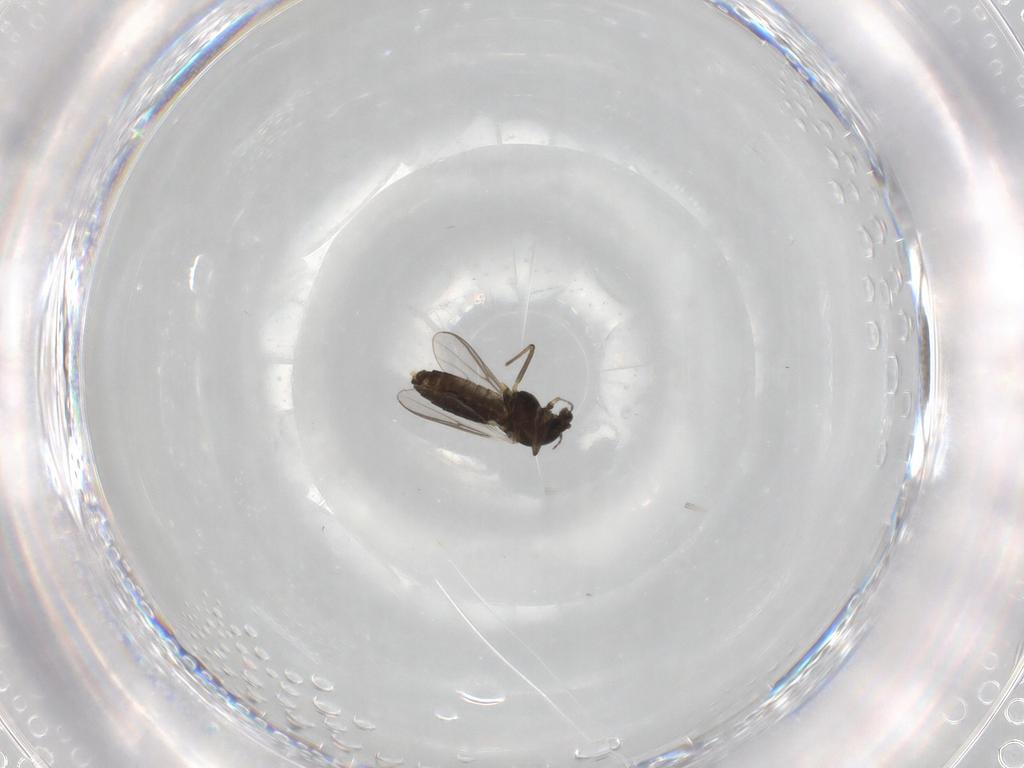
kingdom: Animalia
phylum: Arthropoda
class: Insecta
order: Diptera
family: Chironomidae
